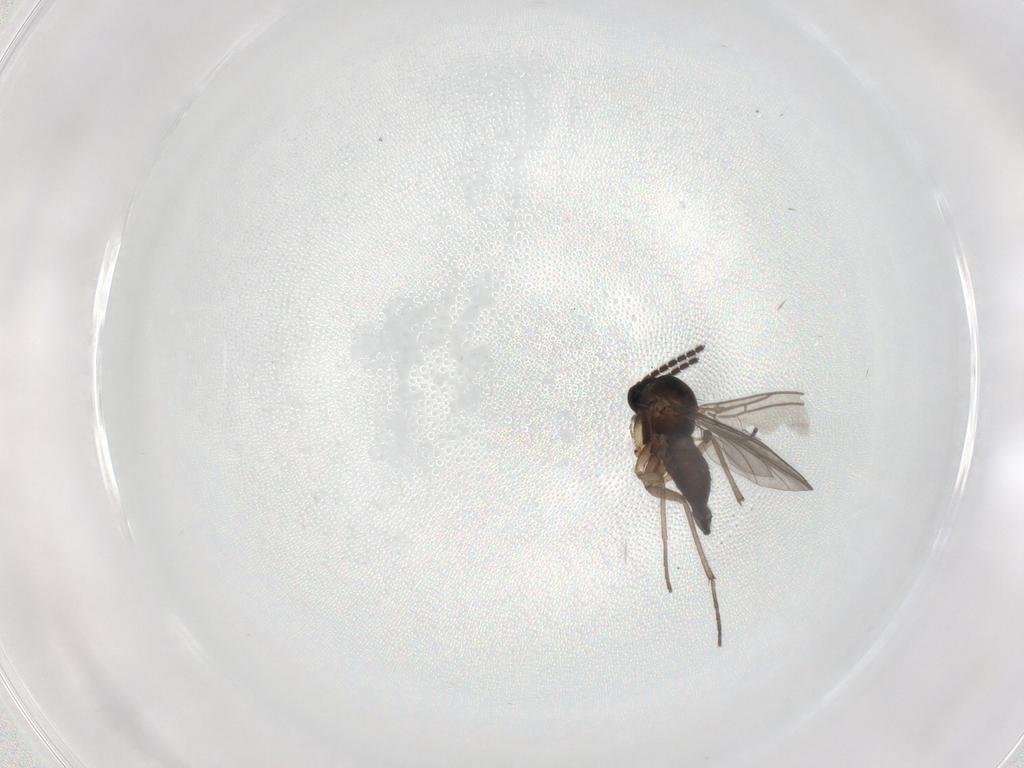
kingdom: Animalia
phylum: Arthropoda
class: Insecta
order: Diptera
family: Sciaridae
